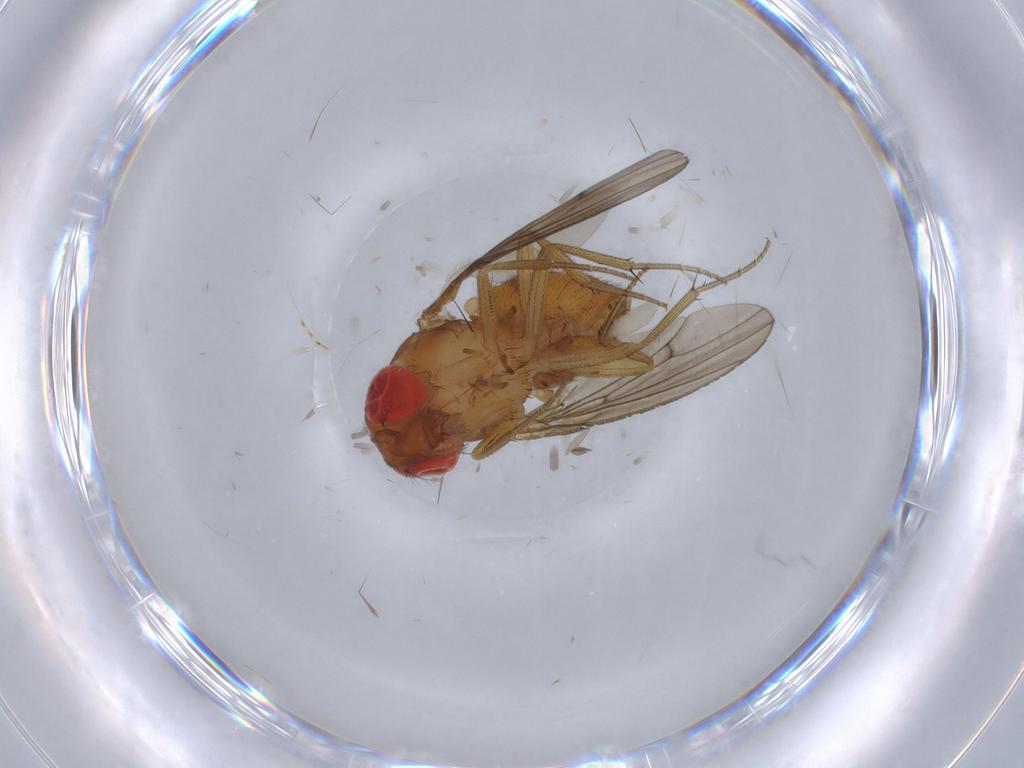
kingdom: Animalia
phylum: Arthropoda
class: Insecta
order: Diptera
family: Drosophilidae
